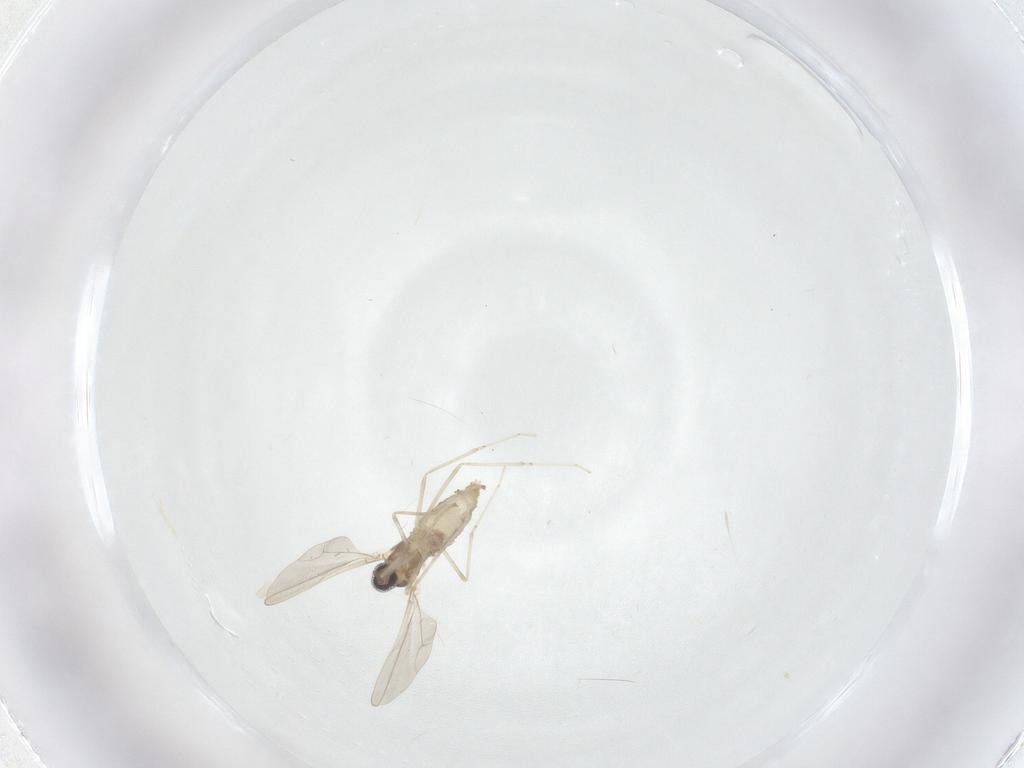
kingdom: Animalia
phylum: Arthropoda
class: Insecta
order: Diptera
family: Cecidomyiidae
